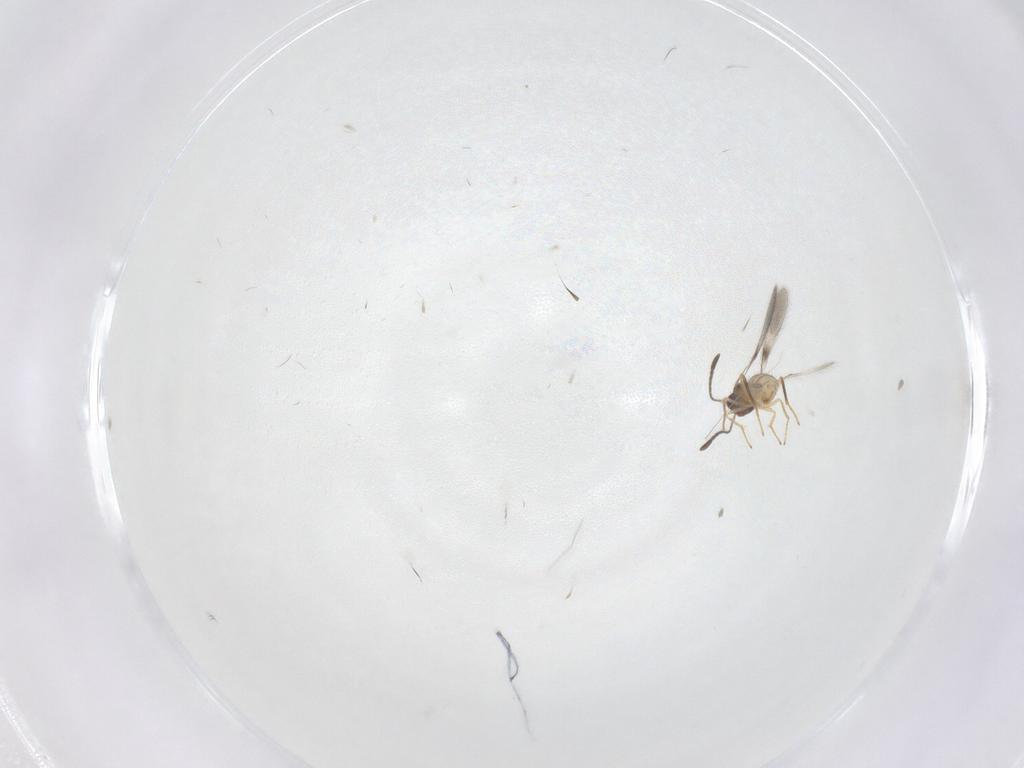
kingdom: Animalia
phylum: Arthropoda
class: Insecta
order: Hymenoptera
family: Mymaridae
